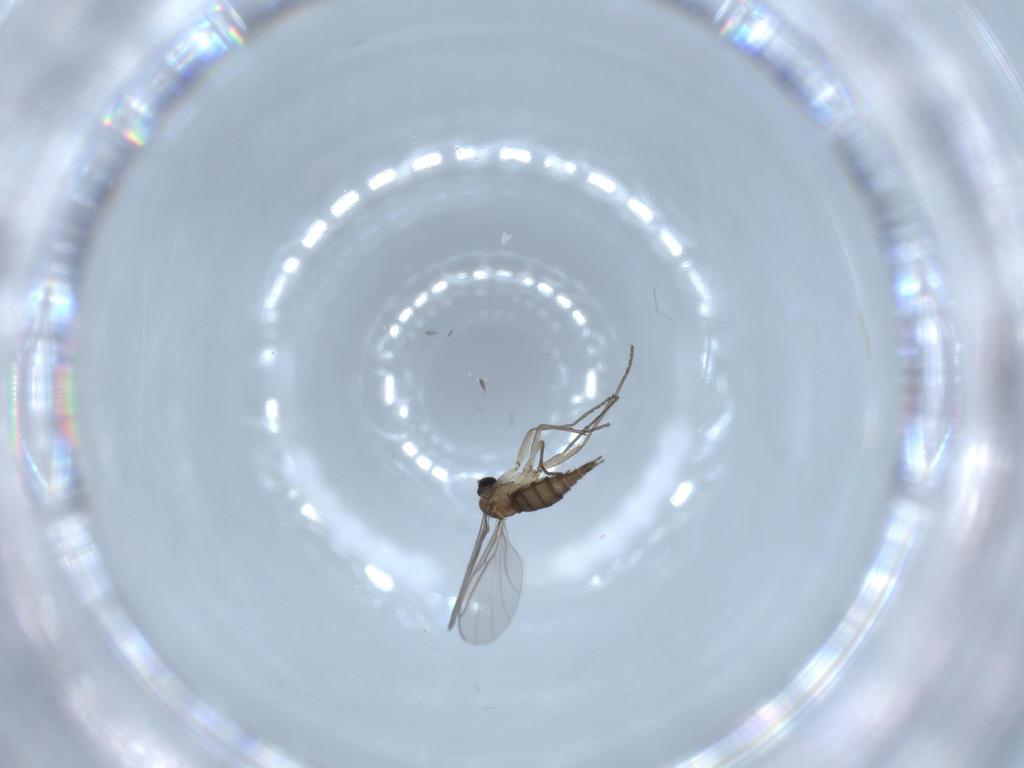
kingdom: Animalia
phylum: Arthropoda
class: Insecta
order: Diptera
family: Sciaridae
